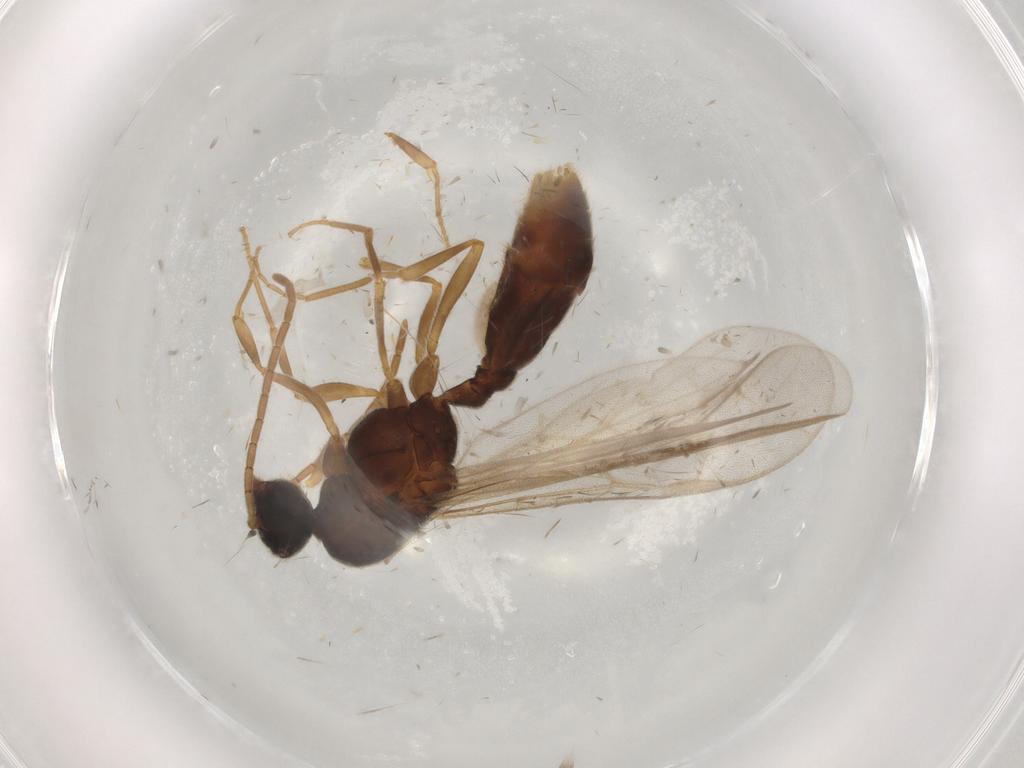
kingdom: Animalia
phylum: Arthropoda
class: Insecta
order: Hymenoptera
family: Formicidae
